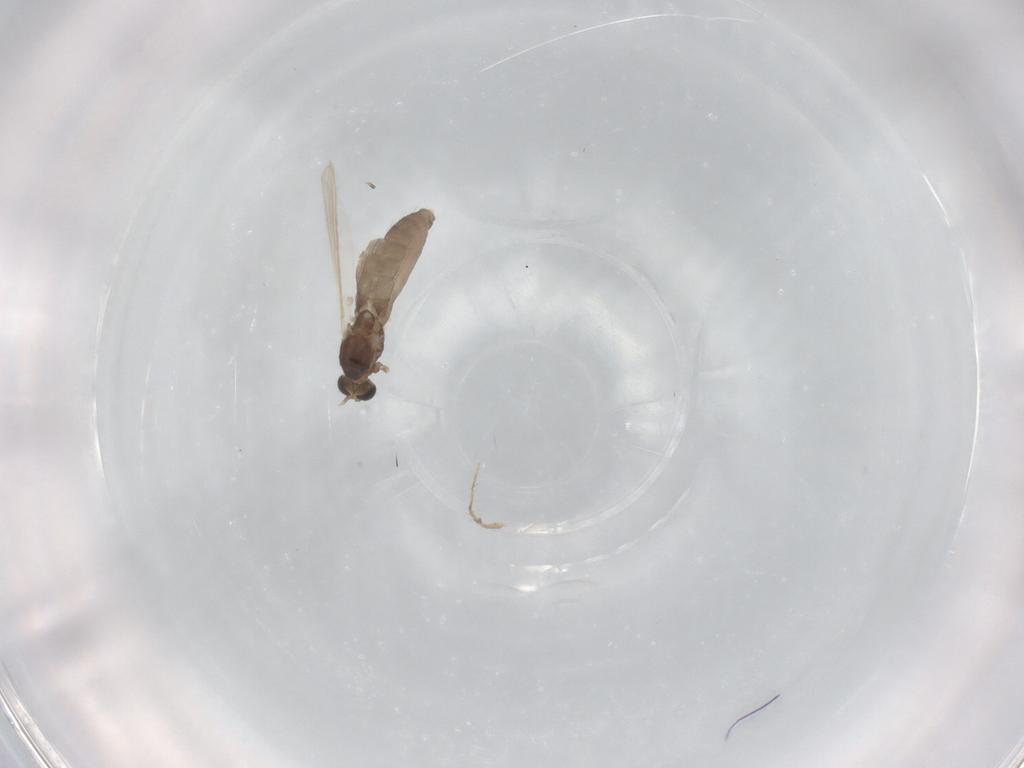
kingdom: Animalia
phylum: Arthropoda
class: Insecta
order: Diptera
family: Chironomidae
